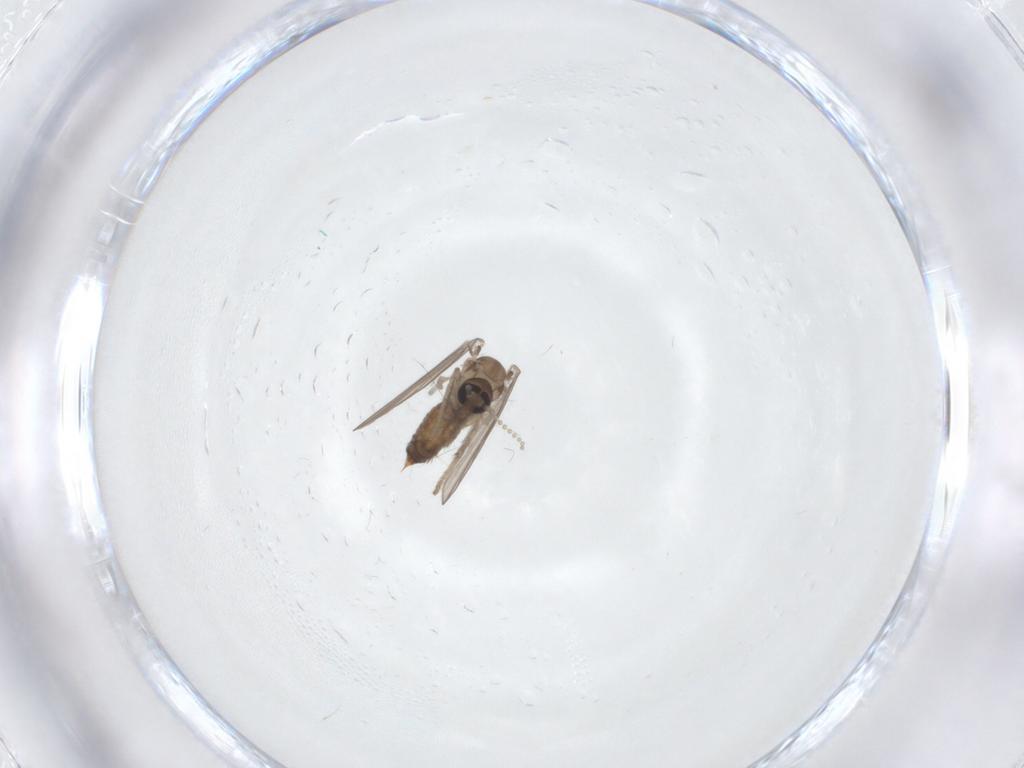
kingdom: Animalia
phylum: Arthropoda
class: Insecta
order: Diptera
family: Psychodidae
